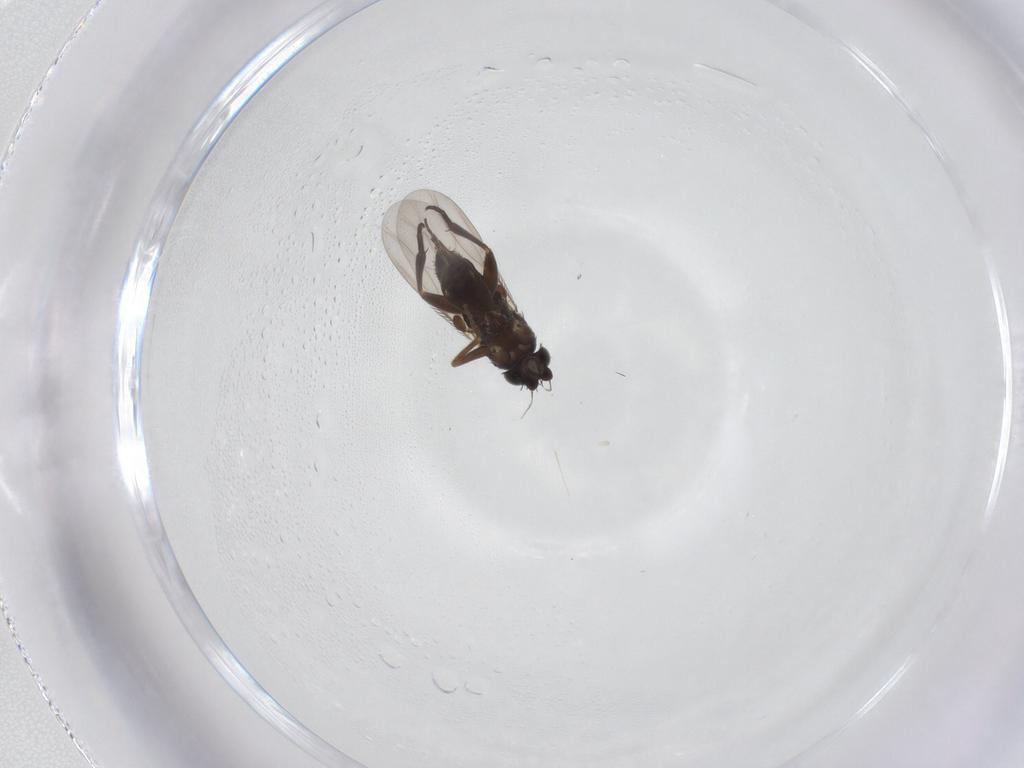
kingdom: Animalia
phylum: Arthropoda
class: Insecta
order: Diptera
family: Phoridae
